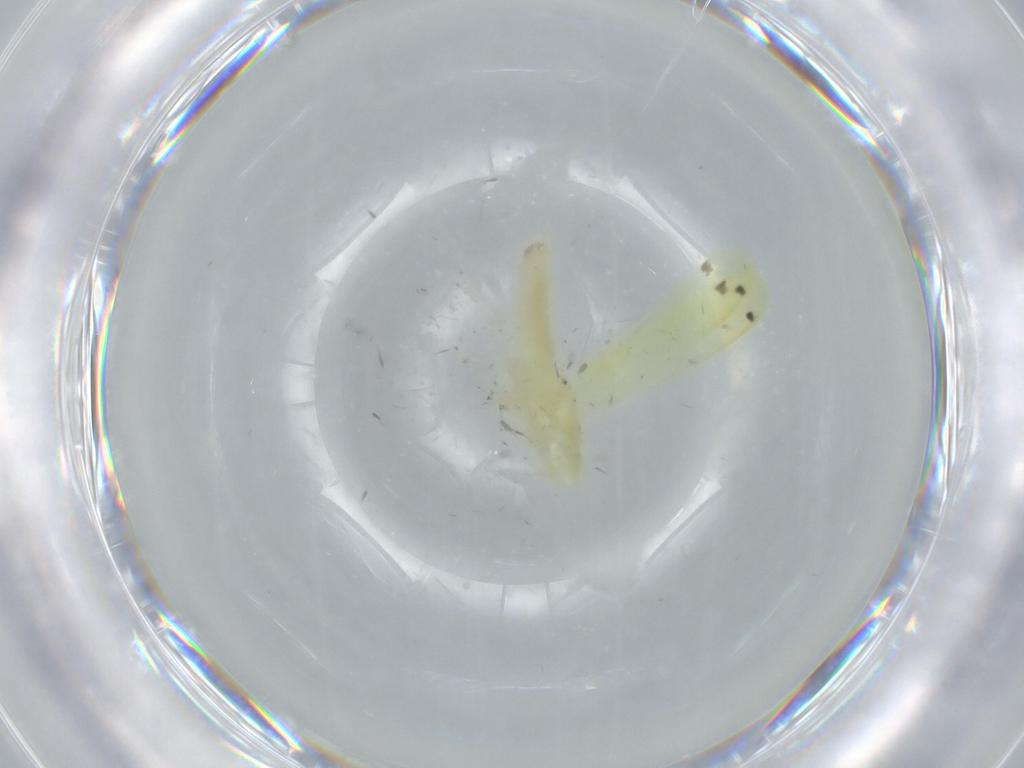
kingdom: Animalia
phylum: Arthropoda
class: Insecta
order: Hemiptera
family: Cicadellidae
